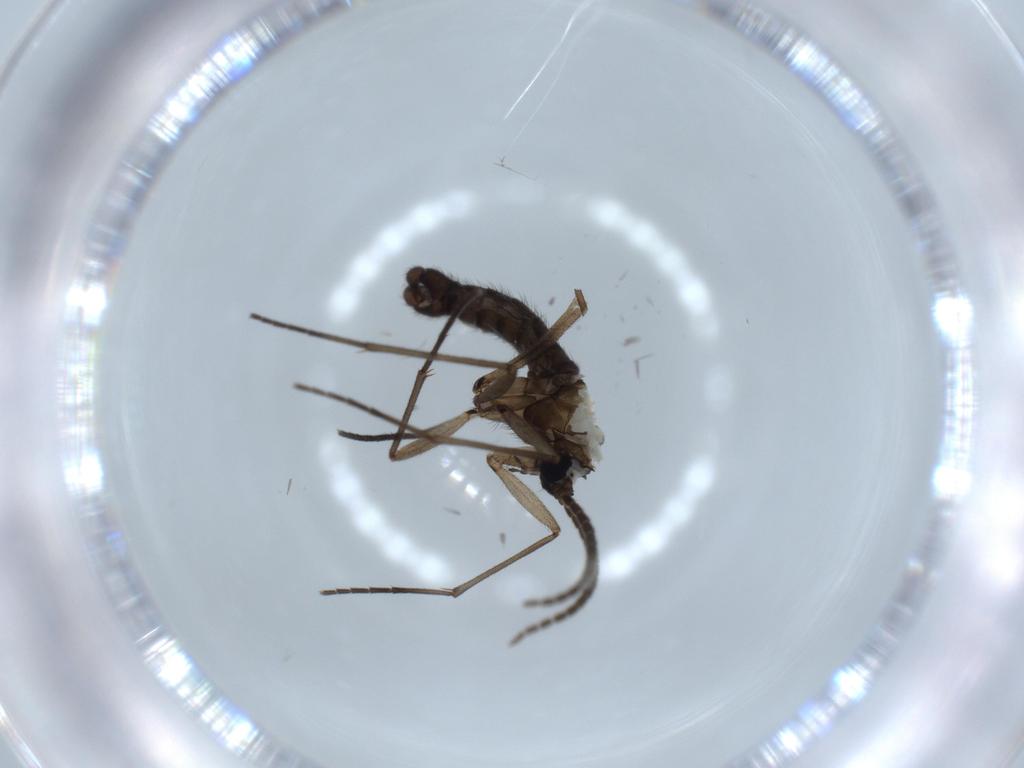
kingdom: Animalia
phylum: Arthropoda
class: Insecta
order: Diptera
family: Sciaridae
